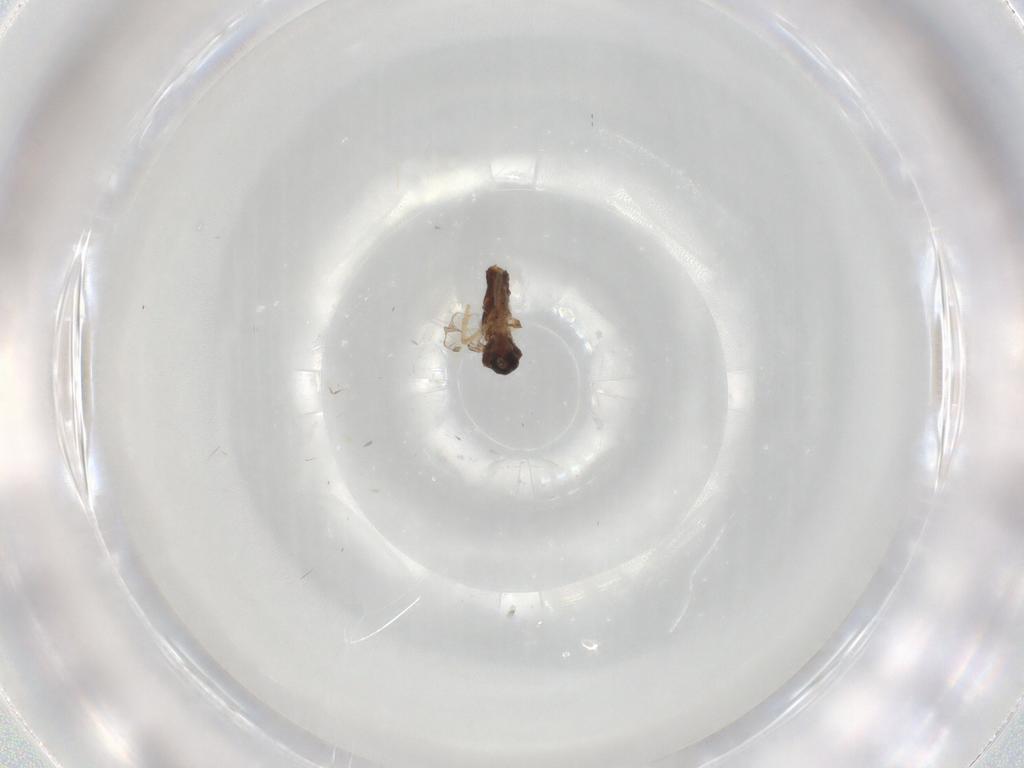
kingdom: Animalia
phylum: Arthropoda
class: Insecta
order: Diptera
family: Ceratopogonidae
